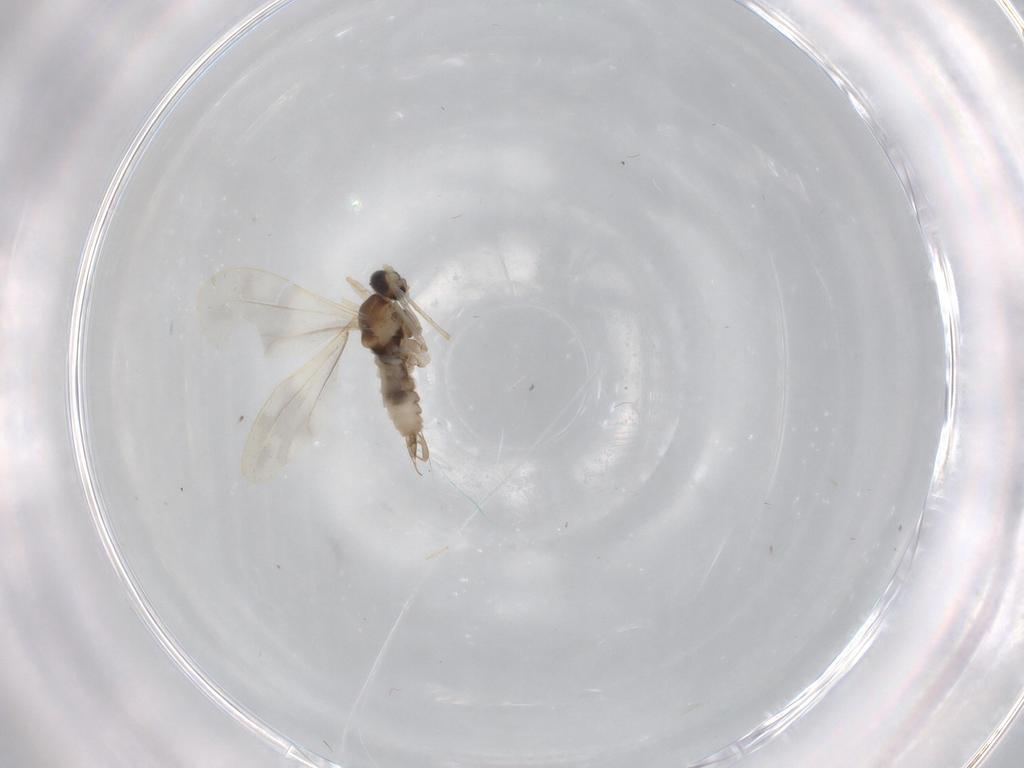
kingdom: Animalia
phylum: Arthropoda
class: Insecta
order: Diptera
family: Cecidomyiidae
